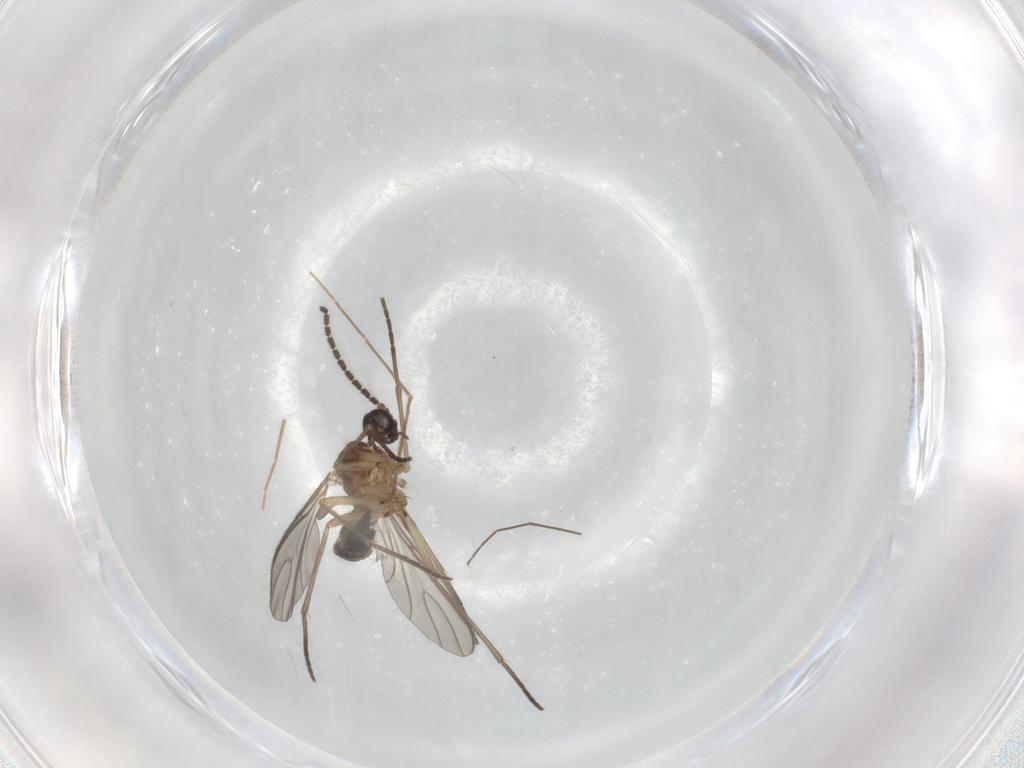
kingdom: Animalia
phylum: Arthropoda
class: Insecta
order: Diptera
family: Sciaridae
